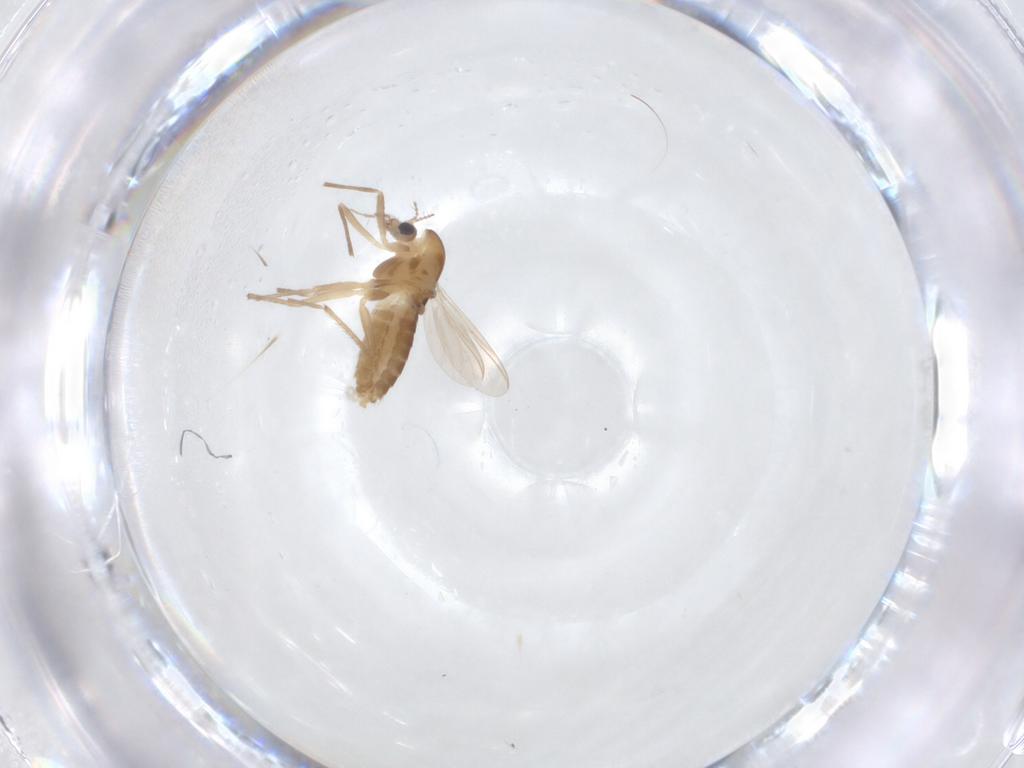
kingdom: Animalia
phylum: Arthropoda
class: Insecta
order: Diptera
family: Chironomidae
